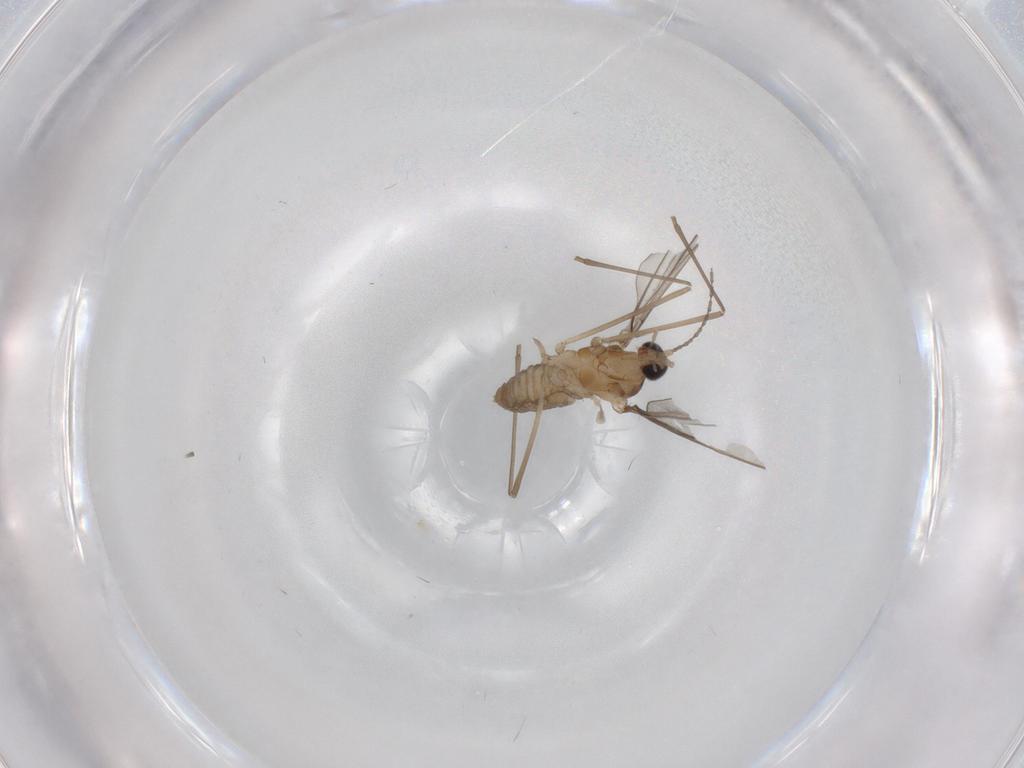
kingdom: Animalia
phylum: Arthropoda
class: Insecta
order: Diptera
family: Cecidomyiidae
